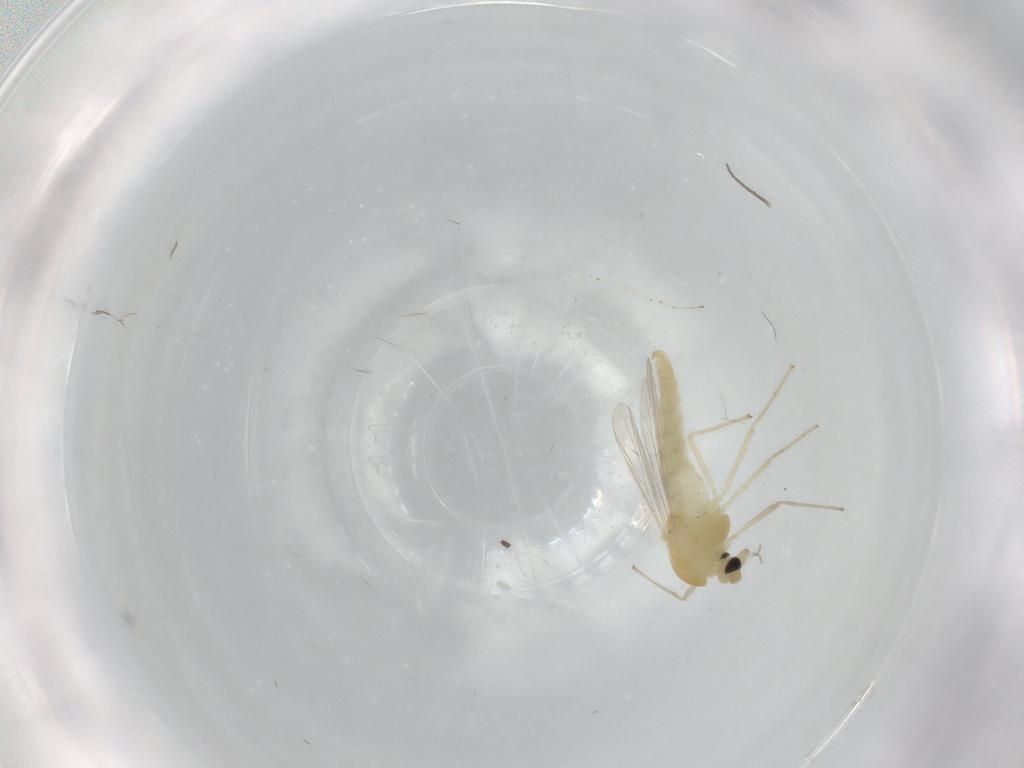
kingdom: Animalia
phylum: Arthropoda
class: Insecta
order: Diptera
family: Chironomidae
